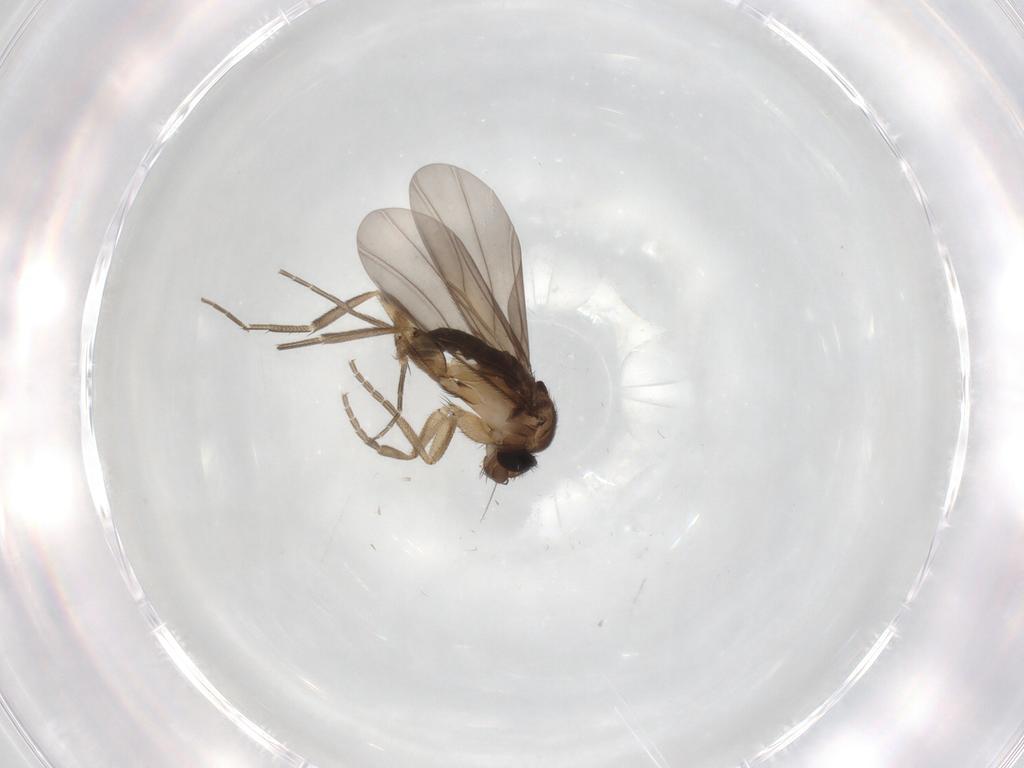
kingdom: Animalia
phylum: Arthropoda
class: Insecta
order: Diptera
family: Phoridae
